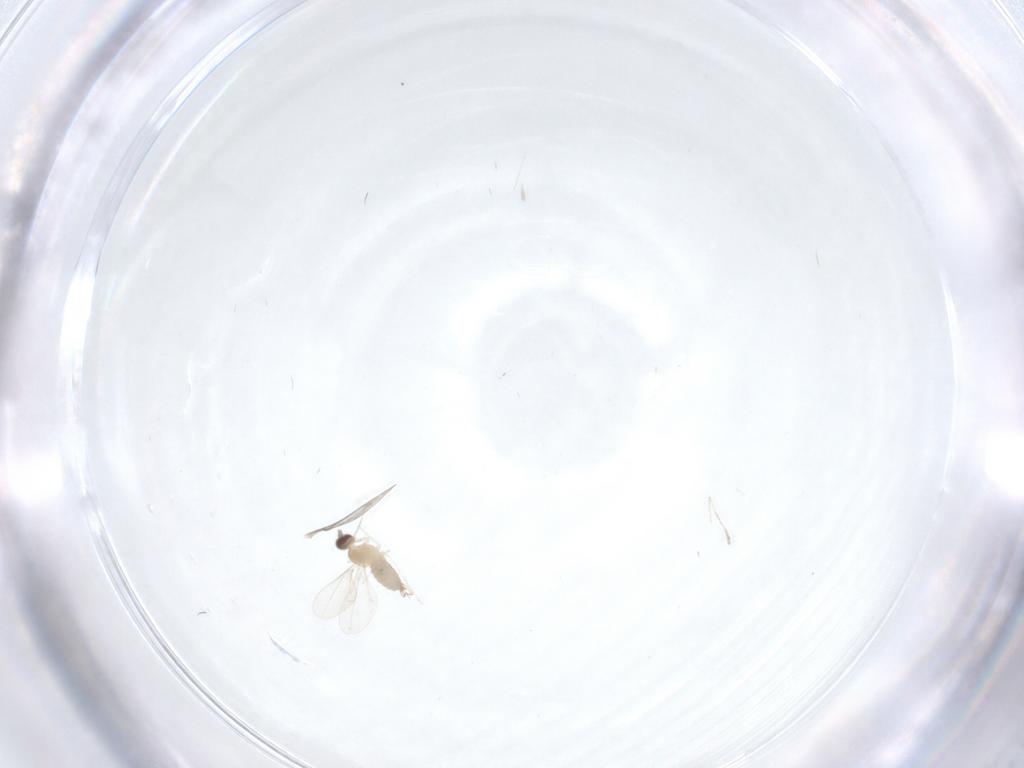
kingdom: Animalia
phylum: Arthropoda
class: Insecta
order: Diptera
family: Cecidomyiidae
